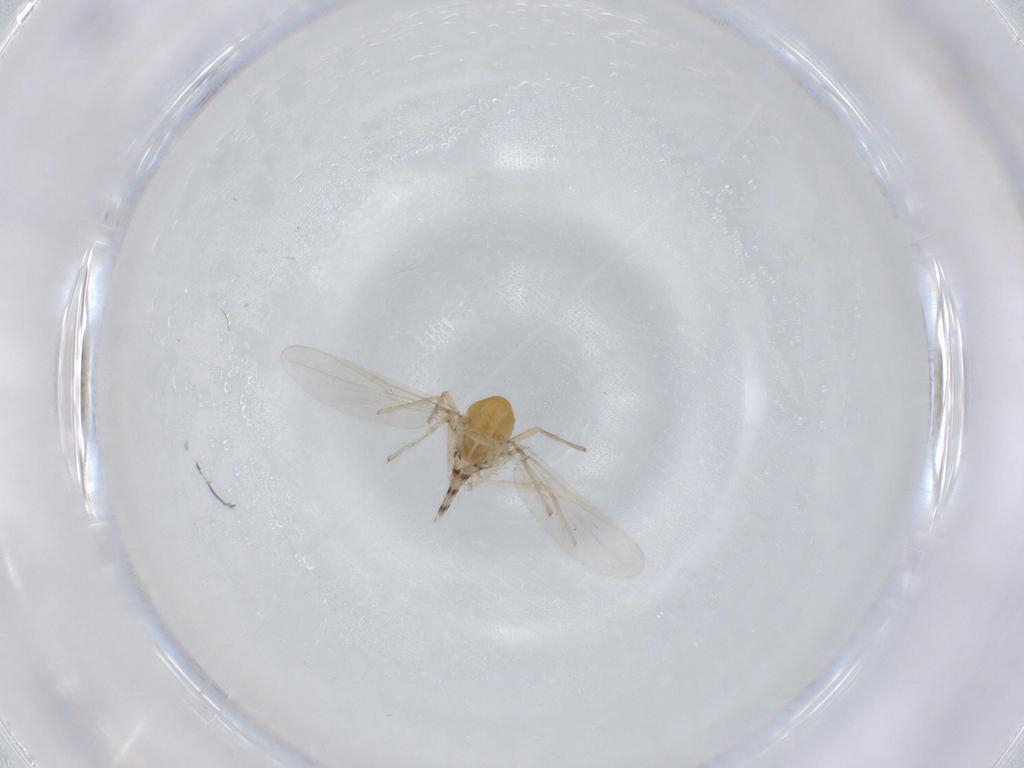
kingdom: Animalia
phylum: Arthropoda
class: Insecta
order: Diptera
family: Chironomidae
